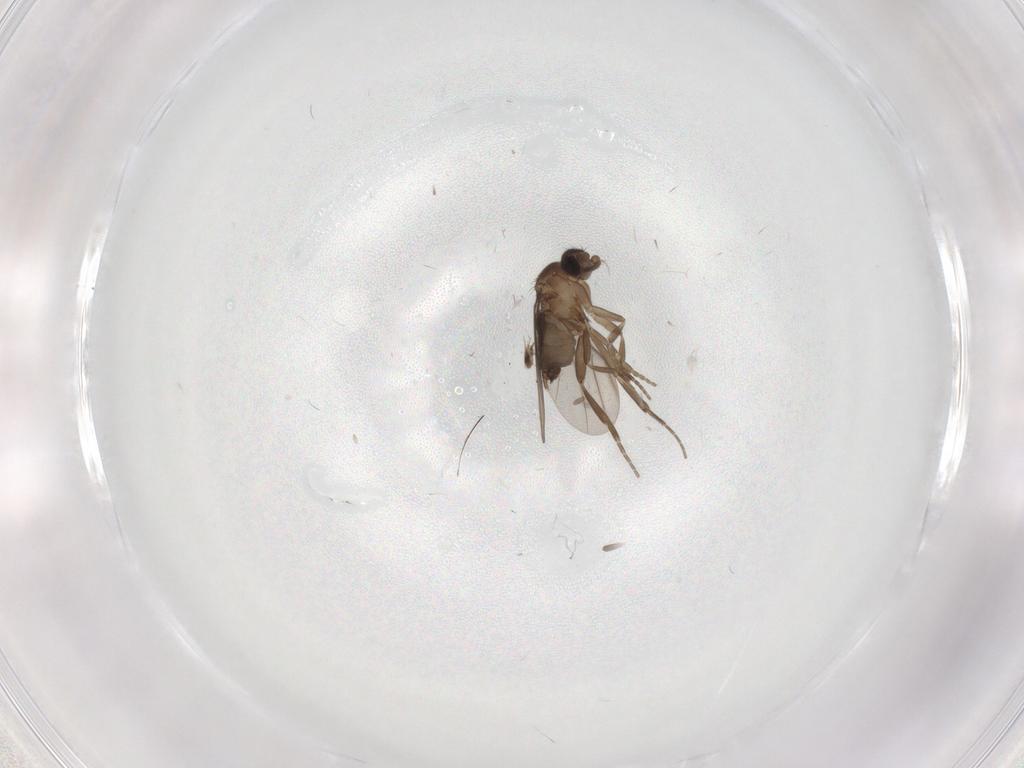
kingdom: Animalia
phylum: Arthropoda
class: Insecta
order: Diptera
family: Limoniidae
